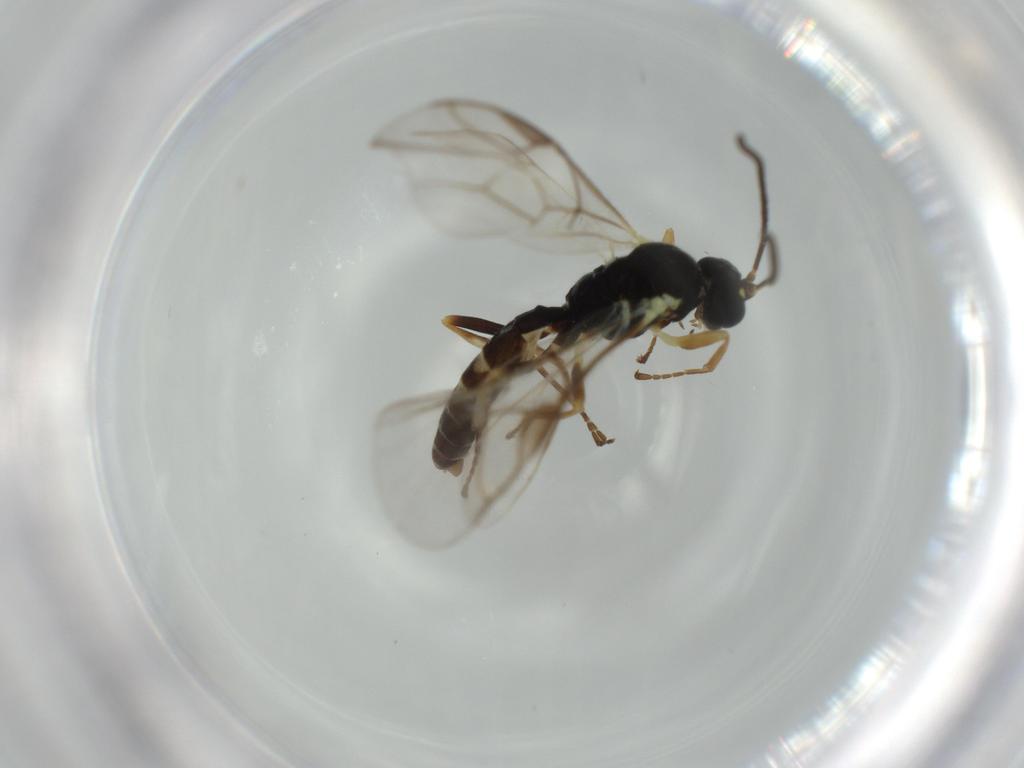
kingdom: Animalia
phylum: Arthropoda
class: Insecta
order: Hymenoptera
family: Ichneumonidae
